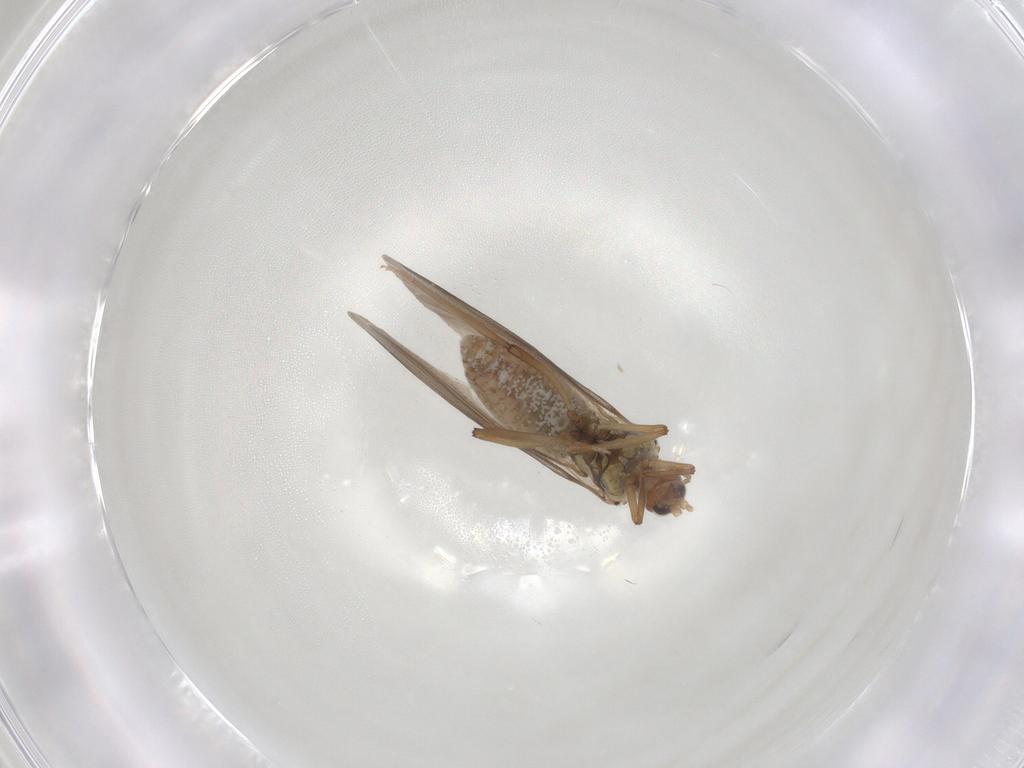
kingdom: Animalia
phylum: Arthropoda
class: Insecta
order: Neuroptera
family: Coniopterygidae
